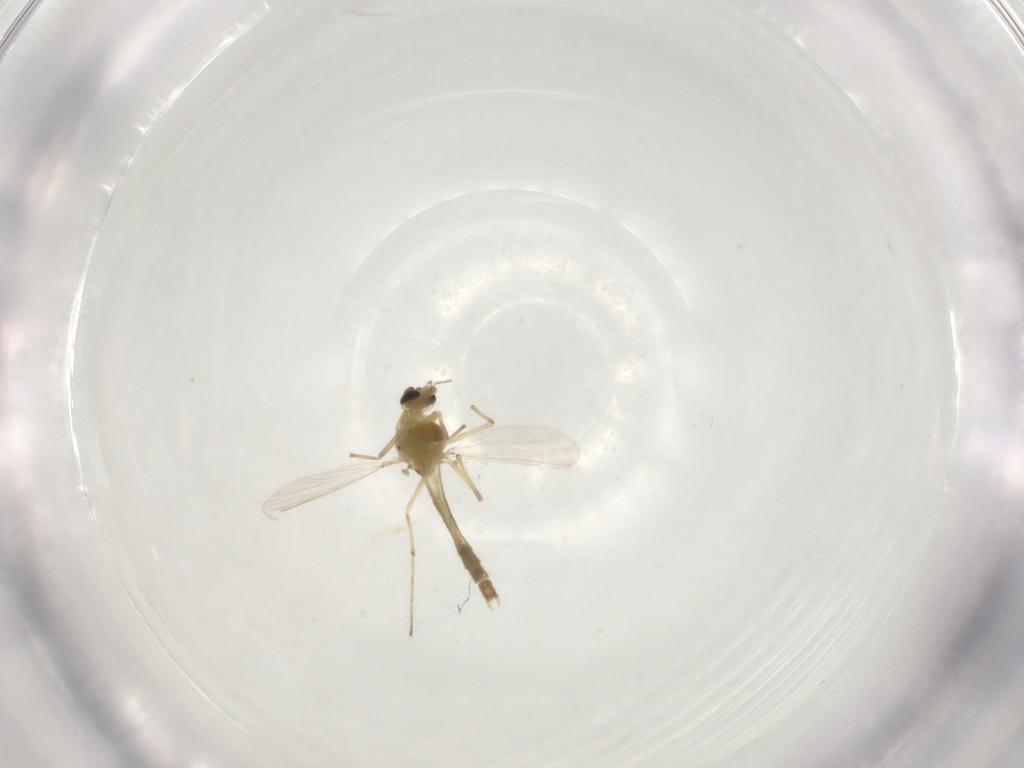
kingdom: Animalia
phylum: Arthropoda
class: Insecta
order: Diptera
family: Chironomidae
